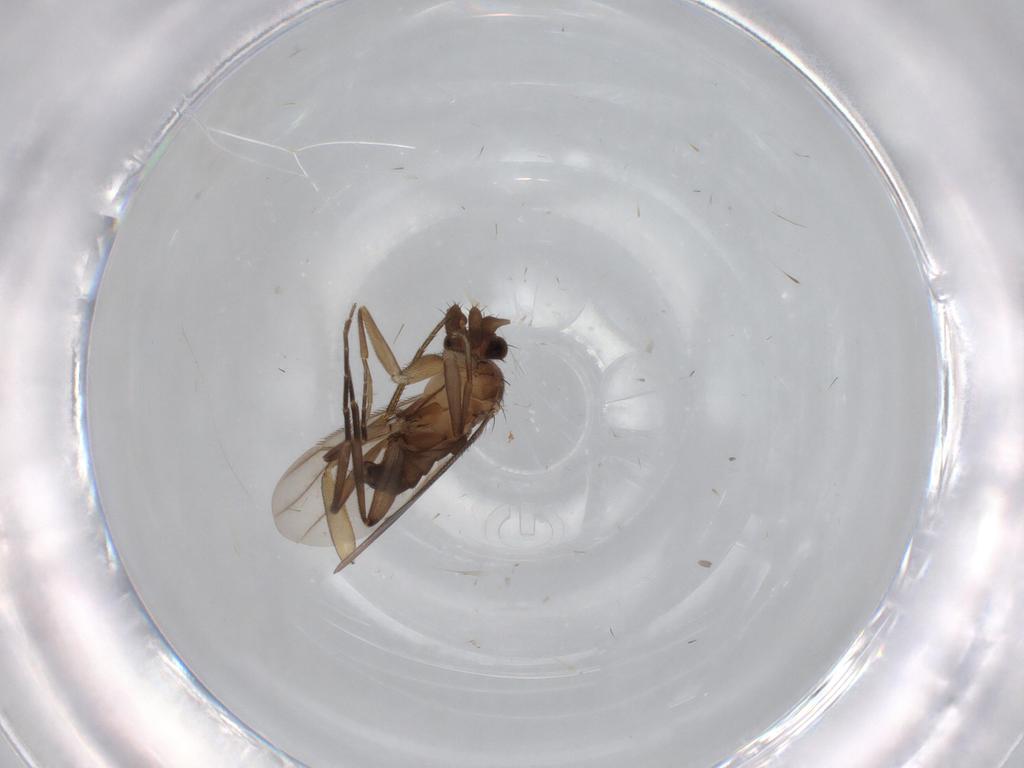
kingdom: Animalia
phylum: Arthropoda
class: Insecta
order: Diptera
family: Phoridae
